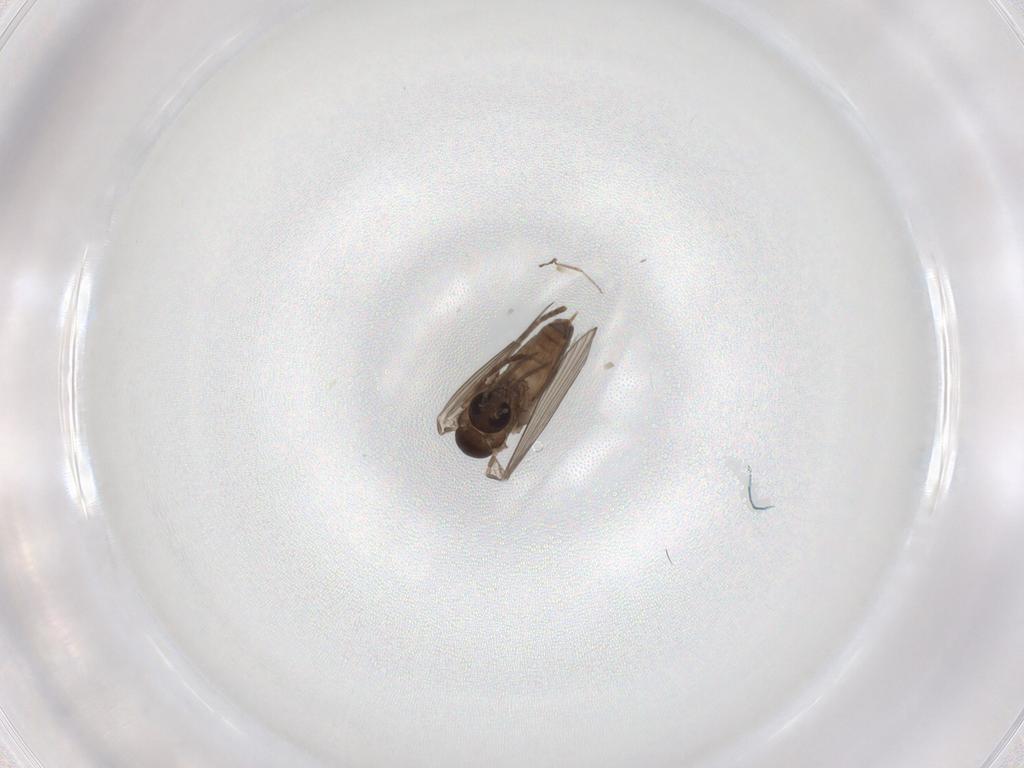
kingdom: Animalia
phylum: Arthropoda
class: Insecta
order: Diptera
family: Psychodidae
